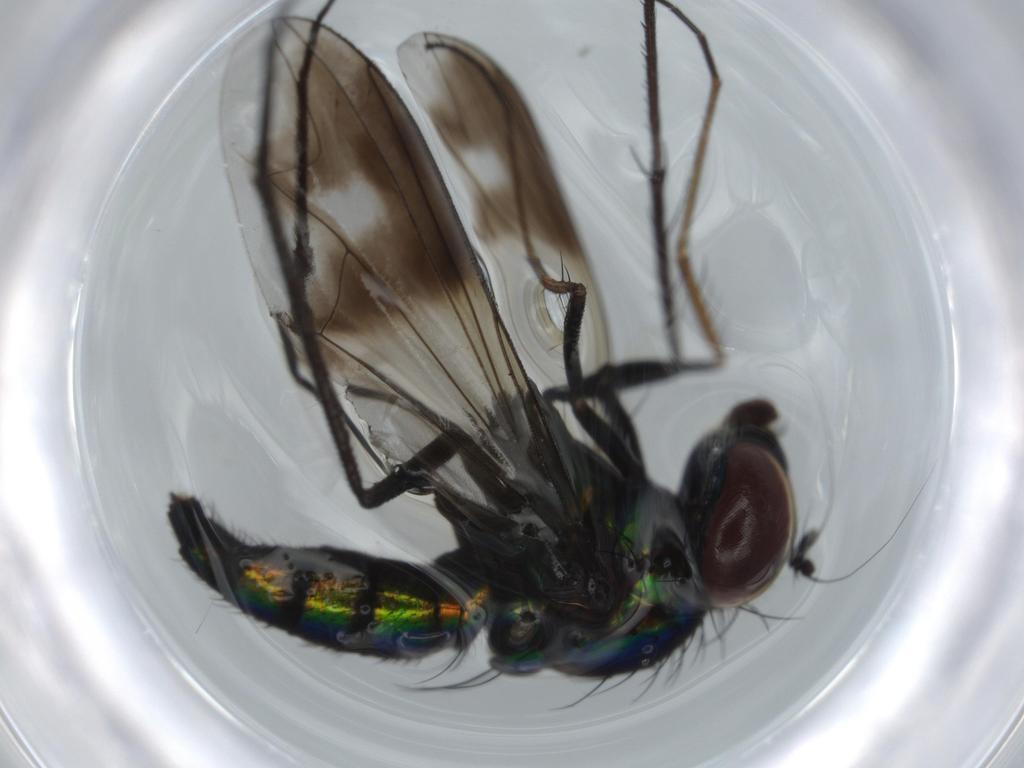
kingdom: Animalia
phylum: Arthropoda
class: Insecta
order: Diptera
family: Dolichopodidae
